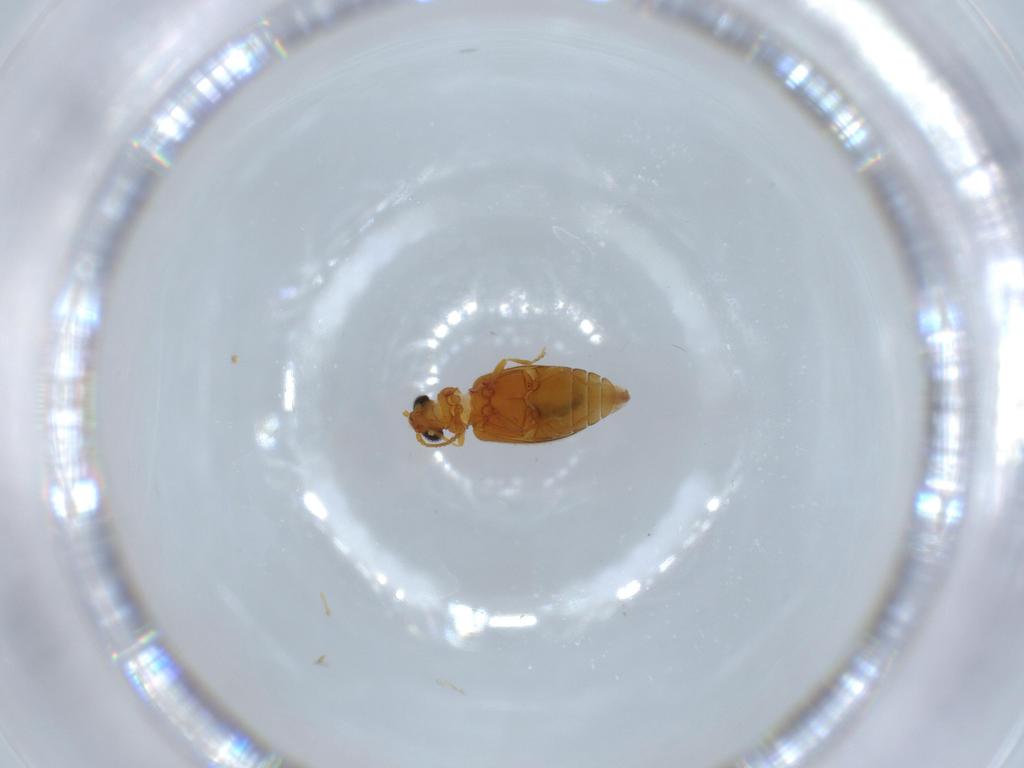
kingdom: Animalia
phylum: Arthropoda
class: Insecta
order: Coleoptera
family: Aderidae
